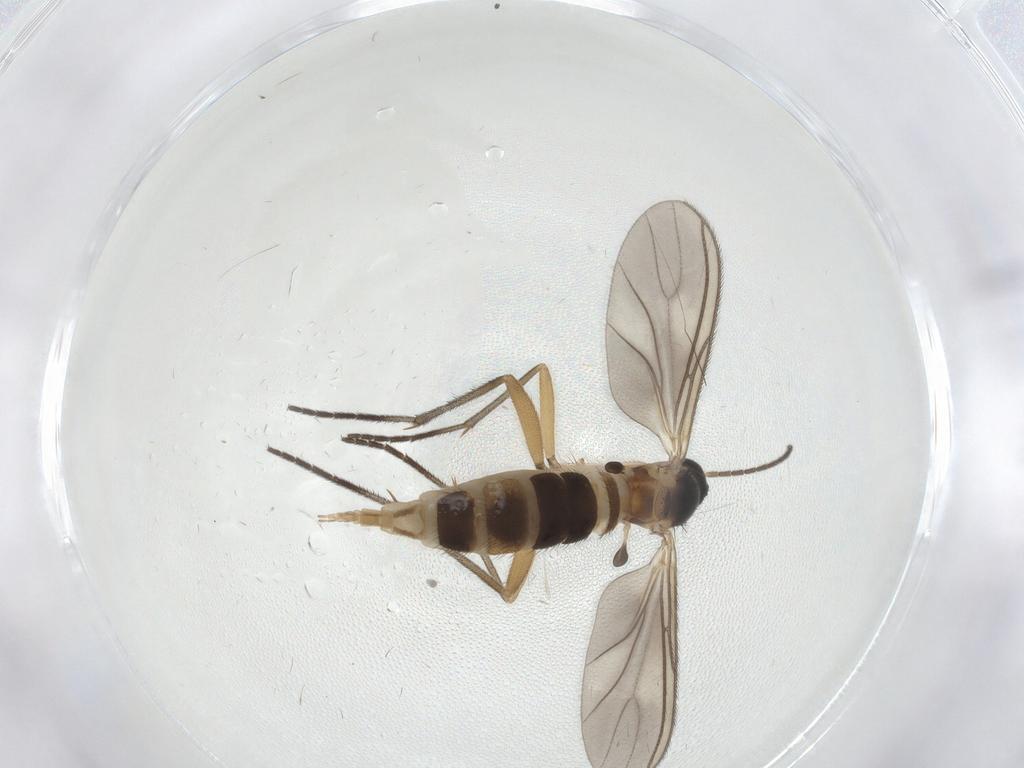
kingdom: Animalia
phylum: Arthropoda
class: Insecta
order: Diptera
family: Sciaridae
